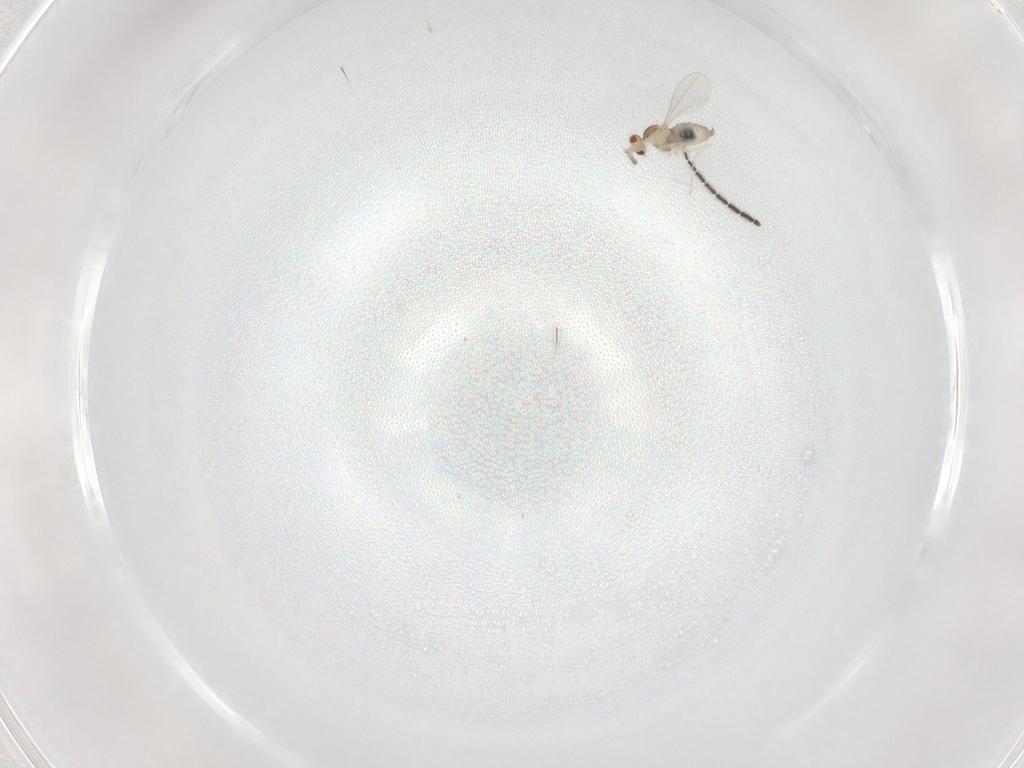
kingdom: Animalia
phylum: Arthropoda
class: Insecta
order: Diptera
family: Cecidomyiidae
